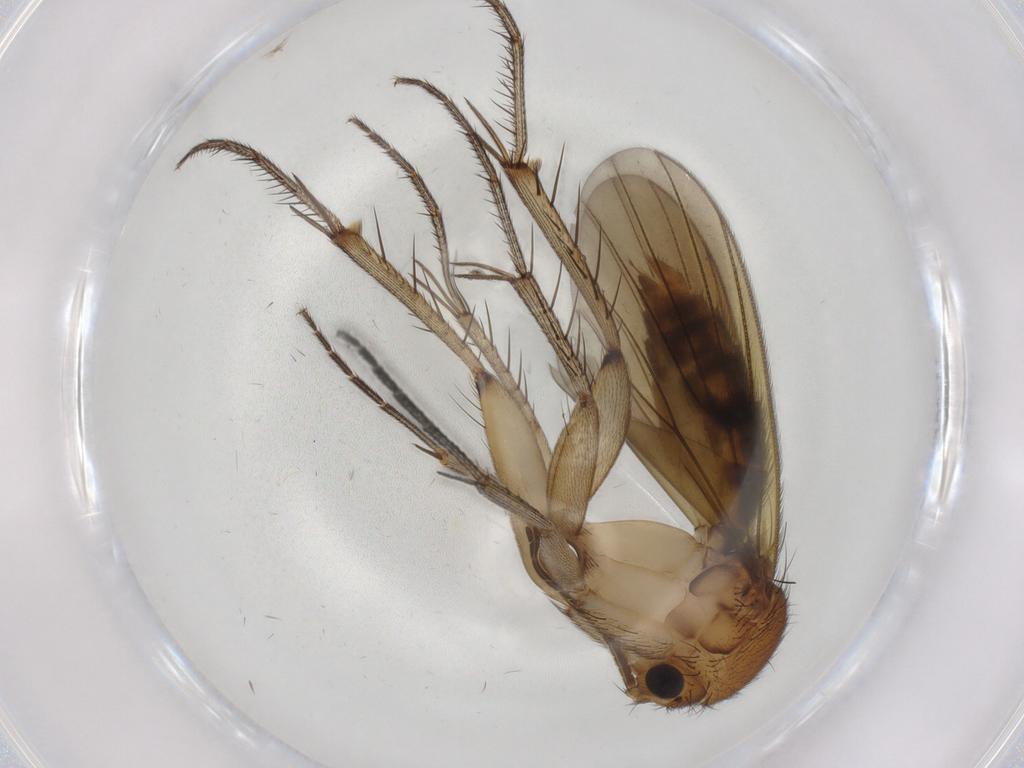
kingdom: Animalia
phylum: Arthropoda
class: Insecta
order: Diptera
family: Mycetophilidae
